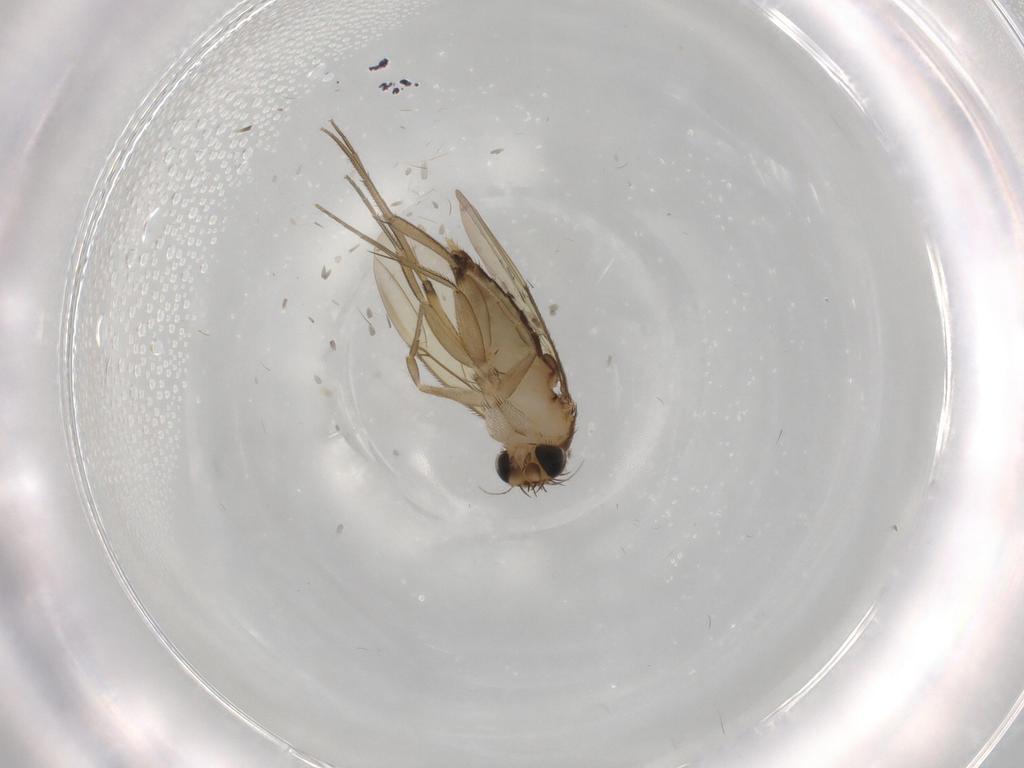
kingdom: Animalia
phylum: Arthropoda
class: Insecta
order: Diptera
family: Phoridae
